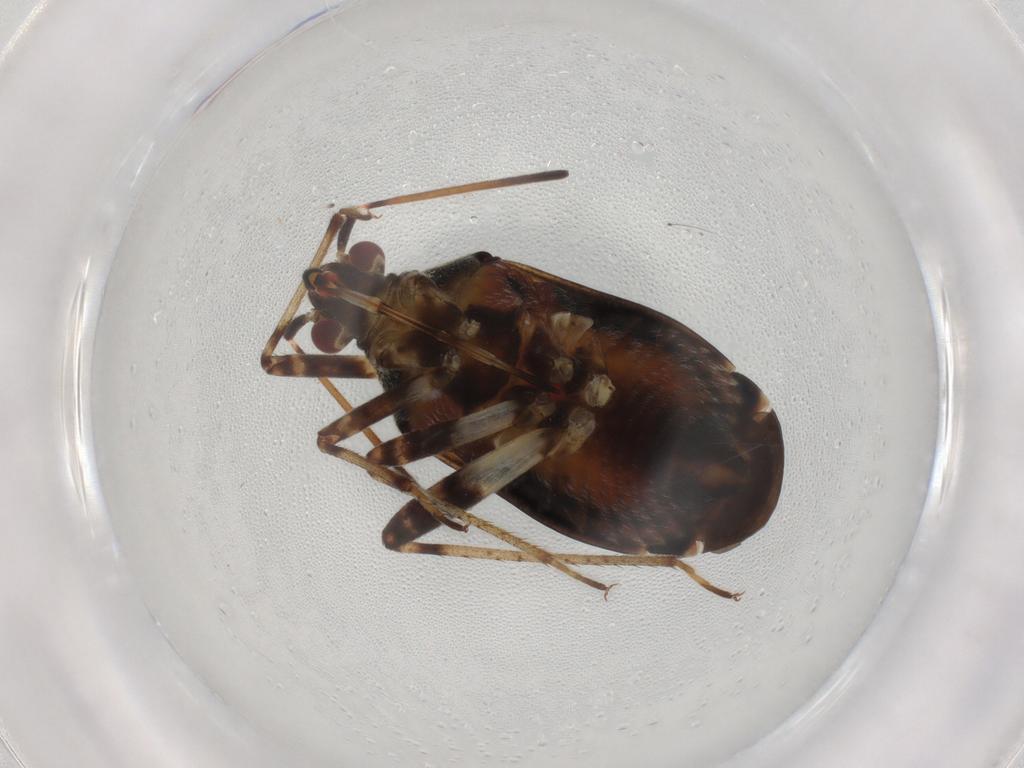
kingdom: Animalia
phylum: Arthropoda
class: Insecta
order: Hemiptera
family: Miridae
